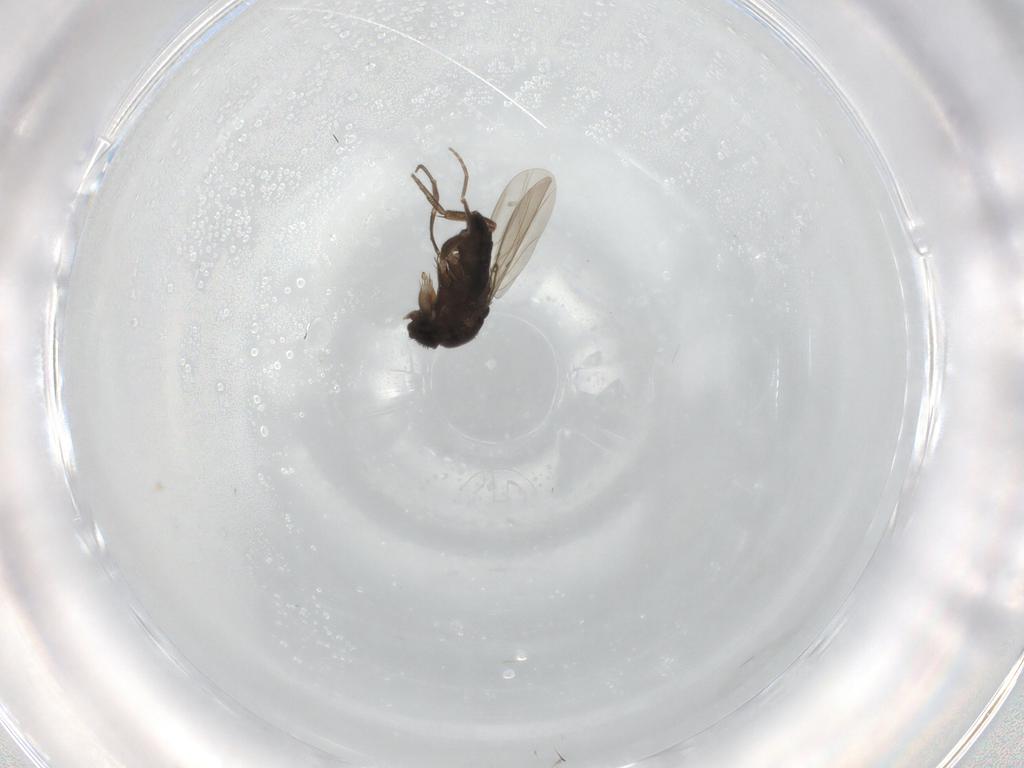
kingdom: Animalia
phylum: Arthropoda
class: Insecta
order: Diptera
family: Phoridae
